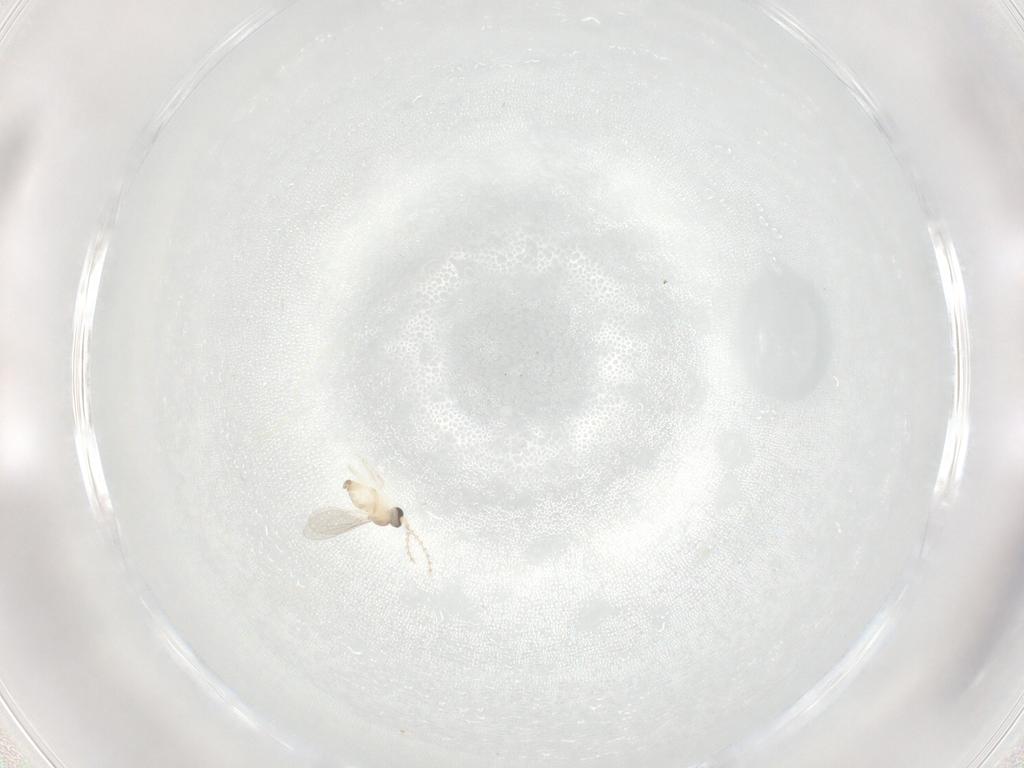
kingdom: Animalia
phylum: Arthropoda
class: Insecta
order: Diptera
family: Cecidomyiidae
